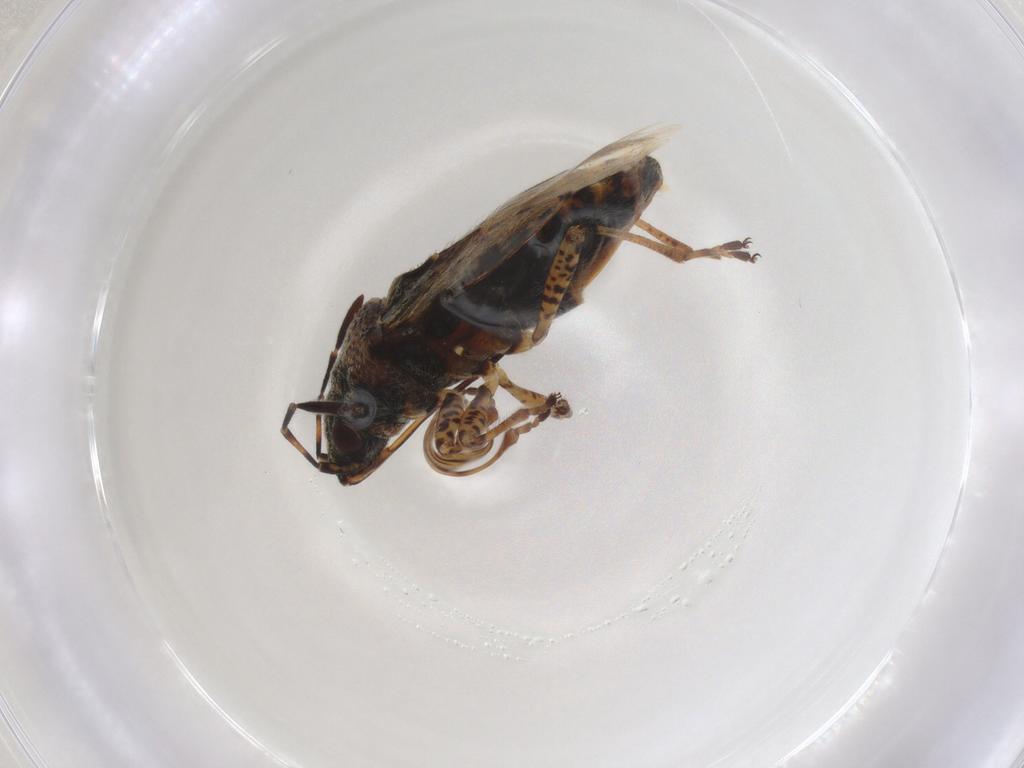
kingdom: Animalia
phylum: Arthropoda
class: Insecta
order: Hemiptera
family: Lygaeidae
